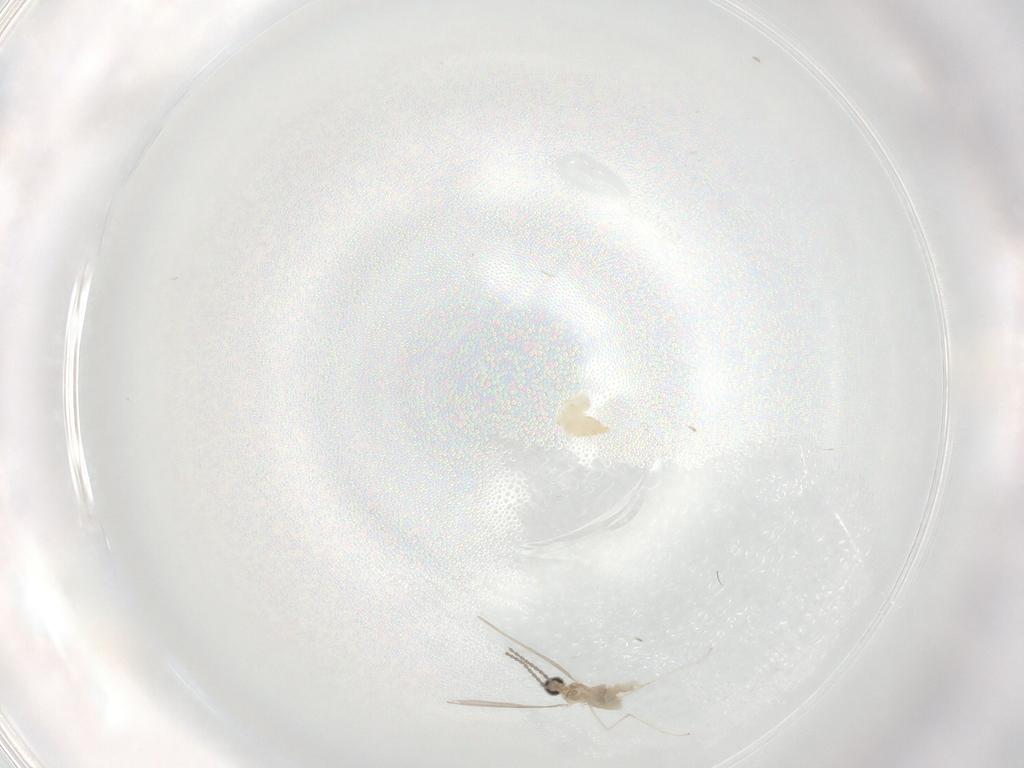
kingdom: Animalia
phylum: Arthropoda
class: Insecta
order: Diptera
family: Cecidomyiidae
